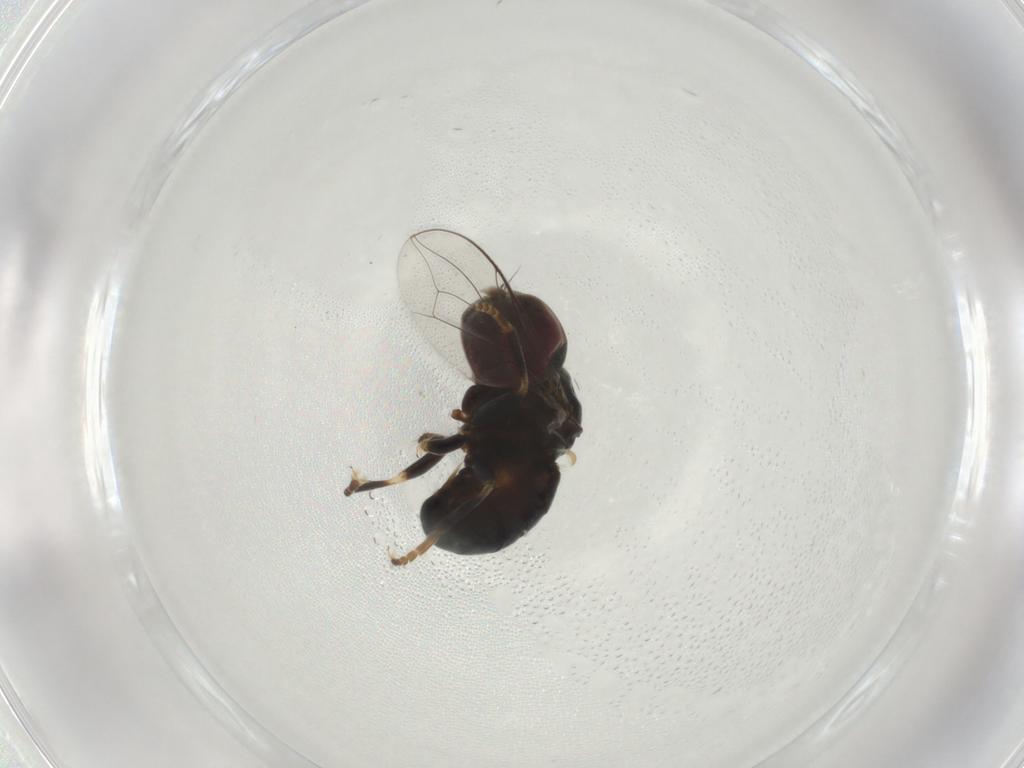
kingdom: Animalia
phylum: Arthropoda
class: Insecta
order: Diptera
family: Pipunculidae
